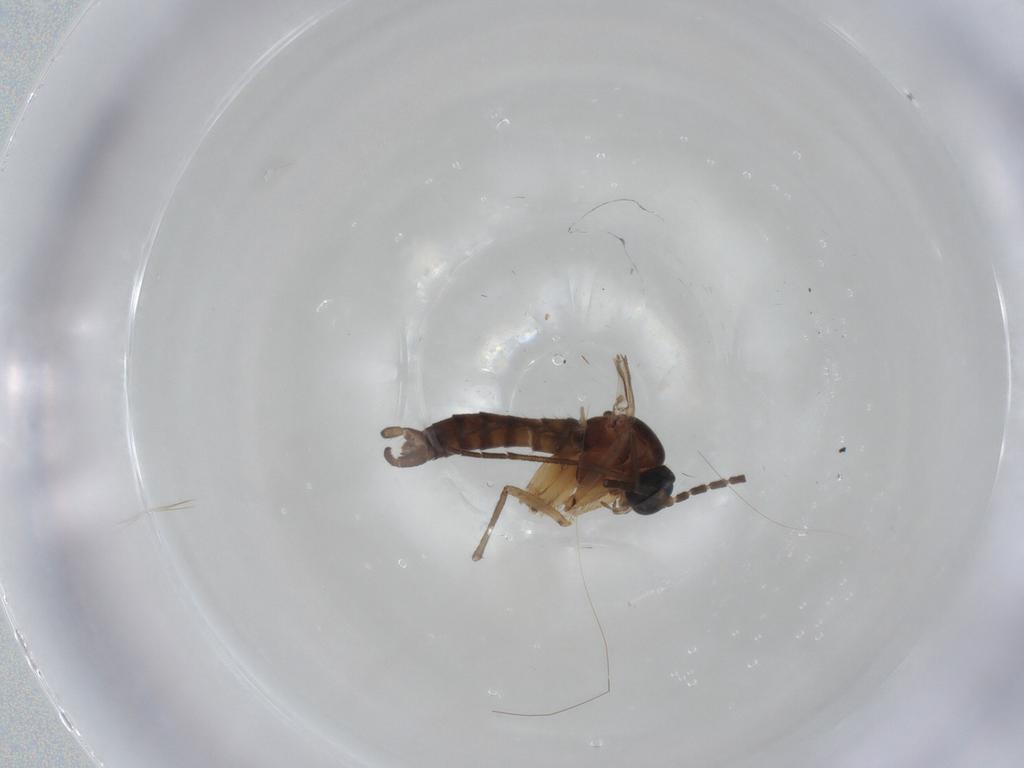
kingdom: Animalia
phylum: Arthropoda
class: Insecta
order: Diptera
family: Sciaridae
